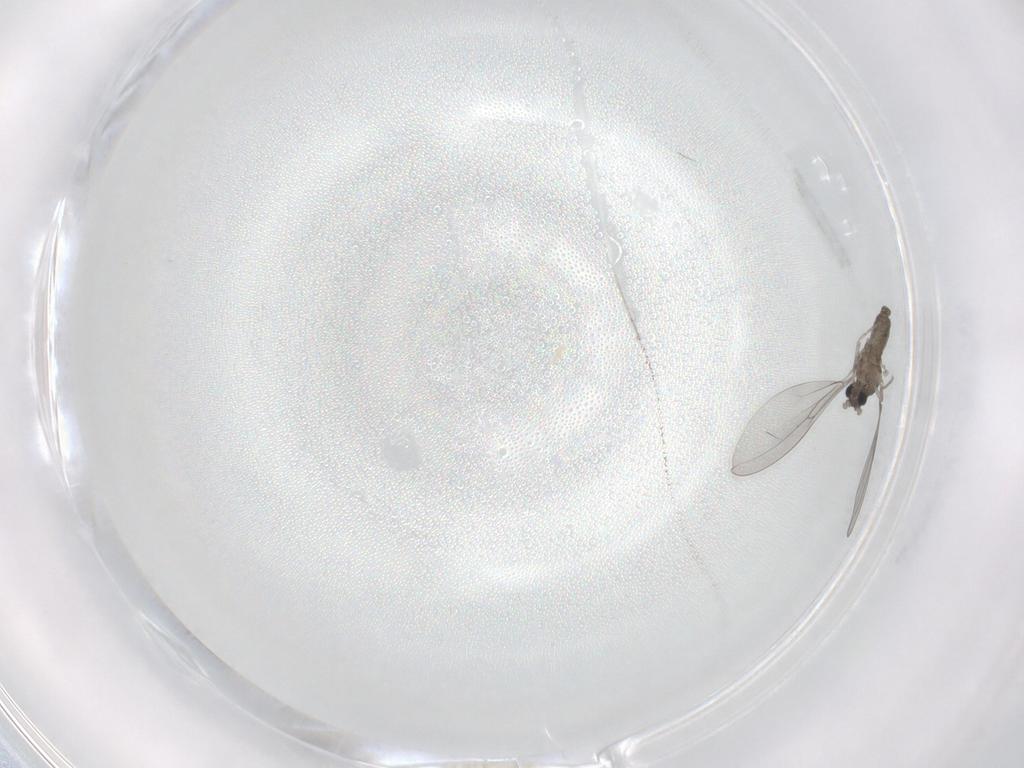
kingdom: Animalia
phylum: Arthropoda
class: Insecta
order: Diptera
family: Cecidomyiidae
